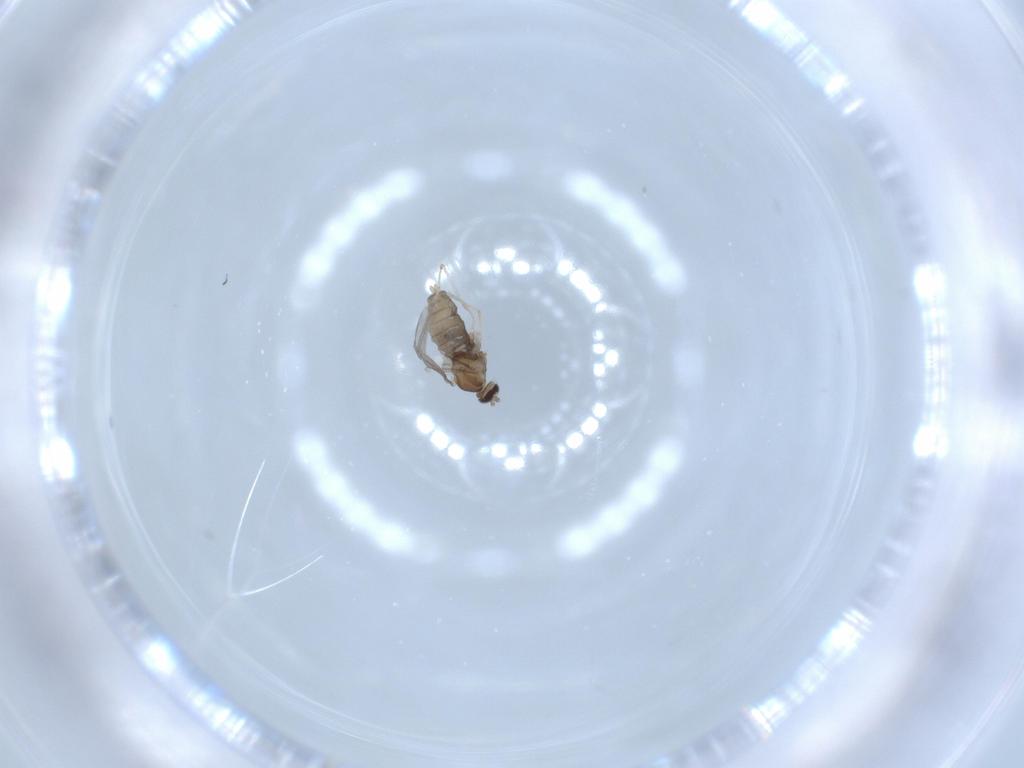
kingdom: Animalia
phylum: Arthropoda
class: Insecta
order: Diptera
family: Cecidomyiidae
